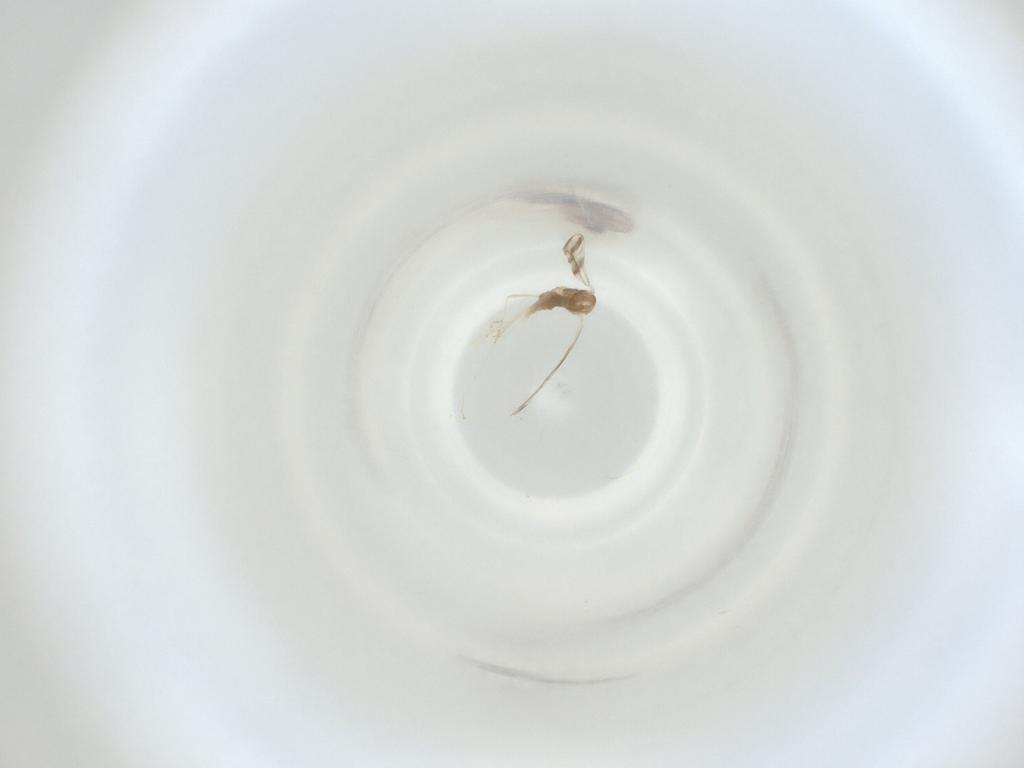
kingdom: Animalia
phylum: Arthropoda
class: Insecta
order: Diptera
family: Cecidomyiidae
